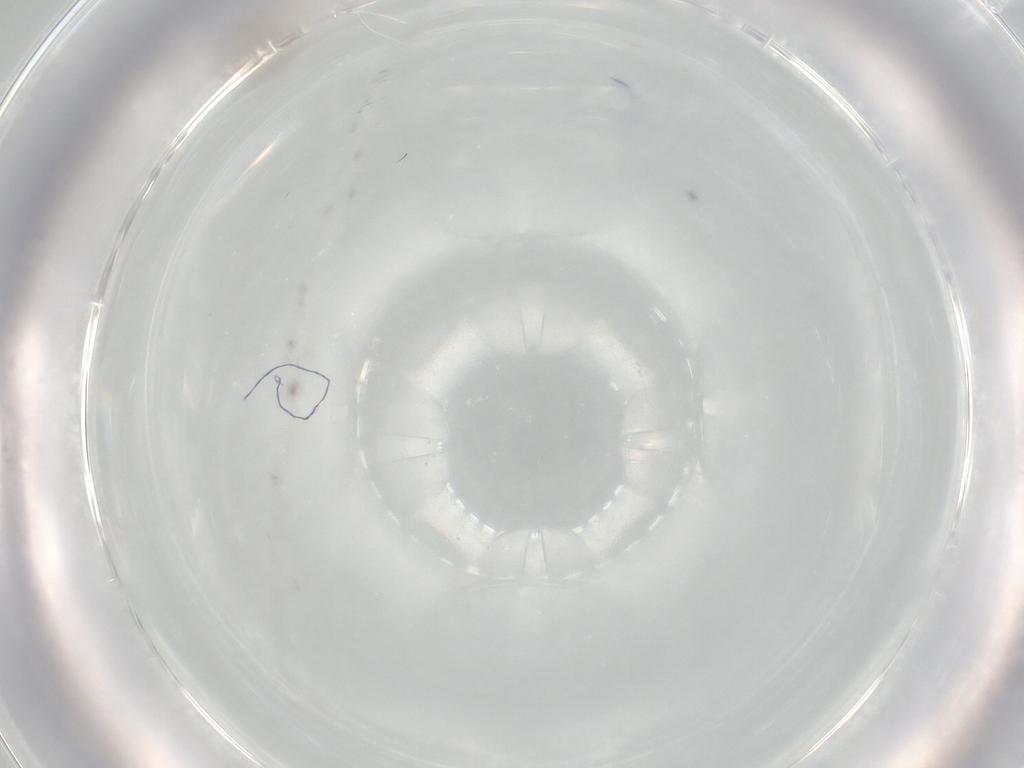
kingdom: Animalia
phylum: Arthropoda
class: Insecta
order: Diptera
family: Cecidomyiidae
